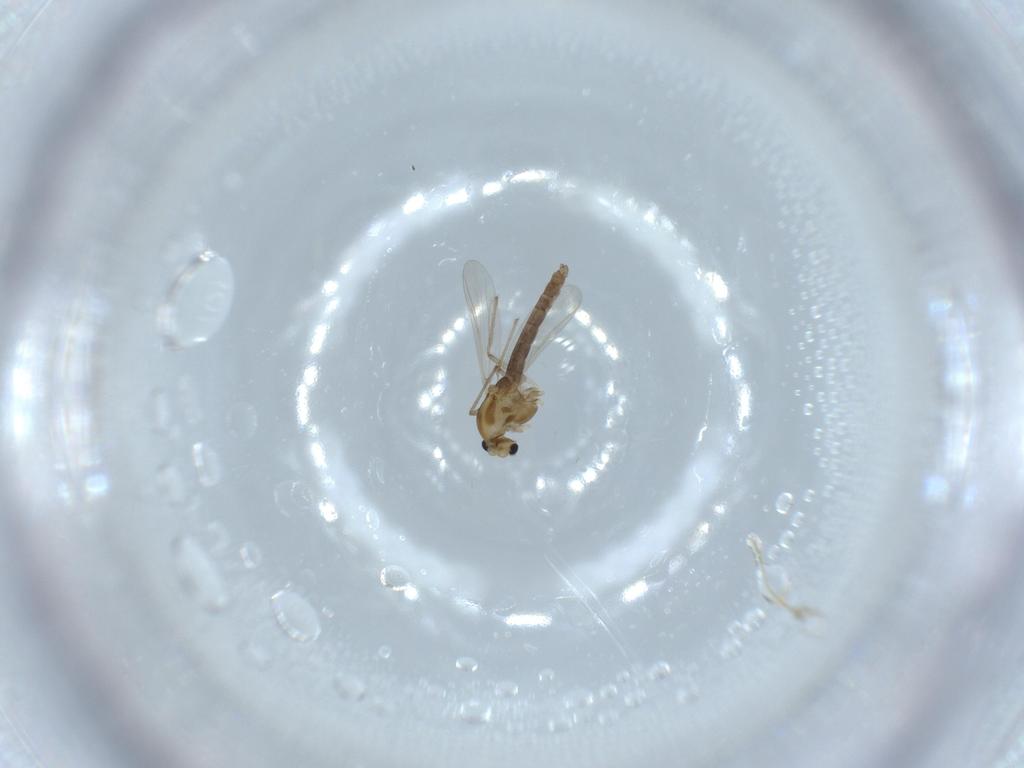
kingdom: Animalia
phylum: Arthropoda
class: Insecta
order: Diptera
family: Chironomidae
